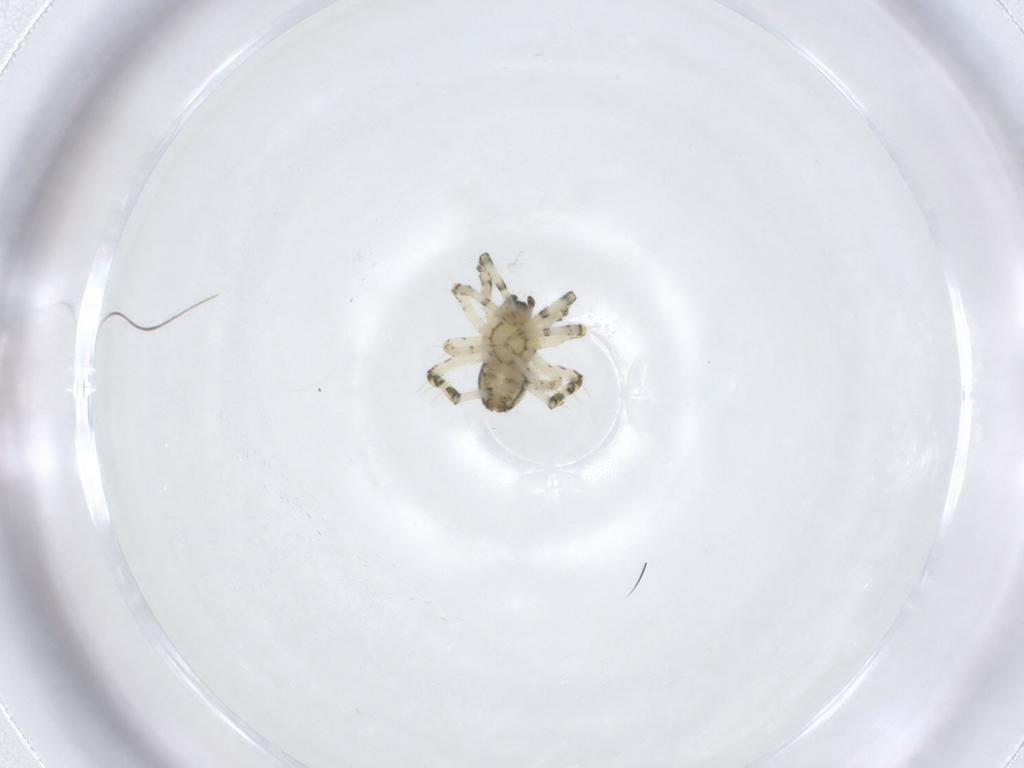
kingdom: Animalia
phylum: Arthropoda
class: Arachnida
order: Araneae
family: Theridiidae
